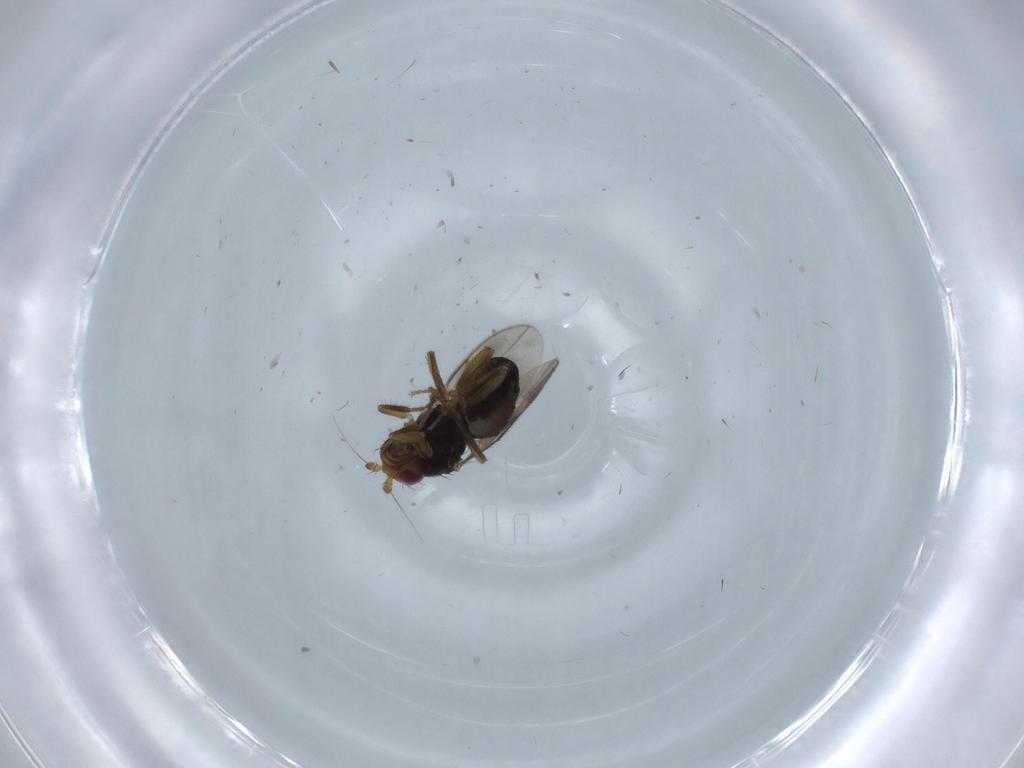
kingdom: Animalia
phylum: Arthropoda
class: Insecta
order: Diptera
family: Sphaeroceridae
